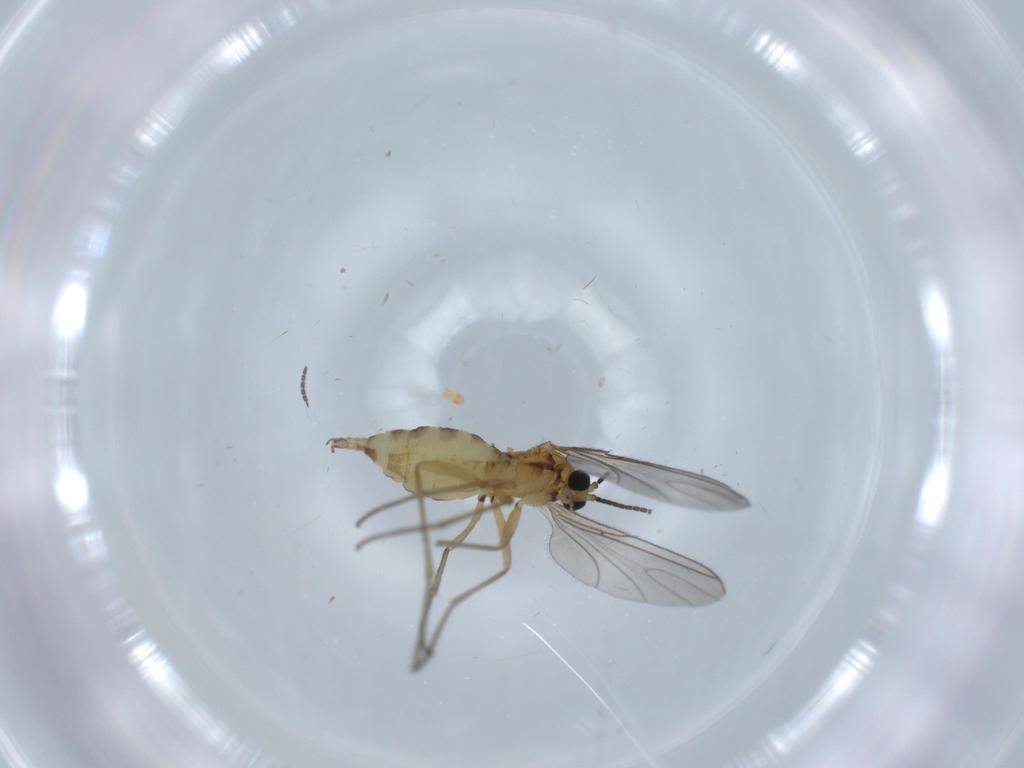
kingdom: Animalia
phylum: Arthropoda
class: Insecta
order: Diptera
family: Sciaridae
